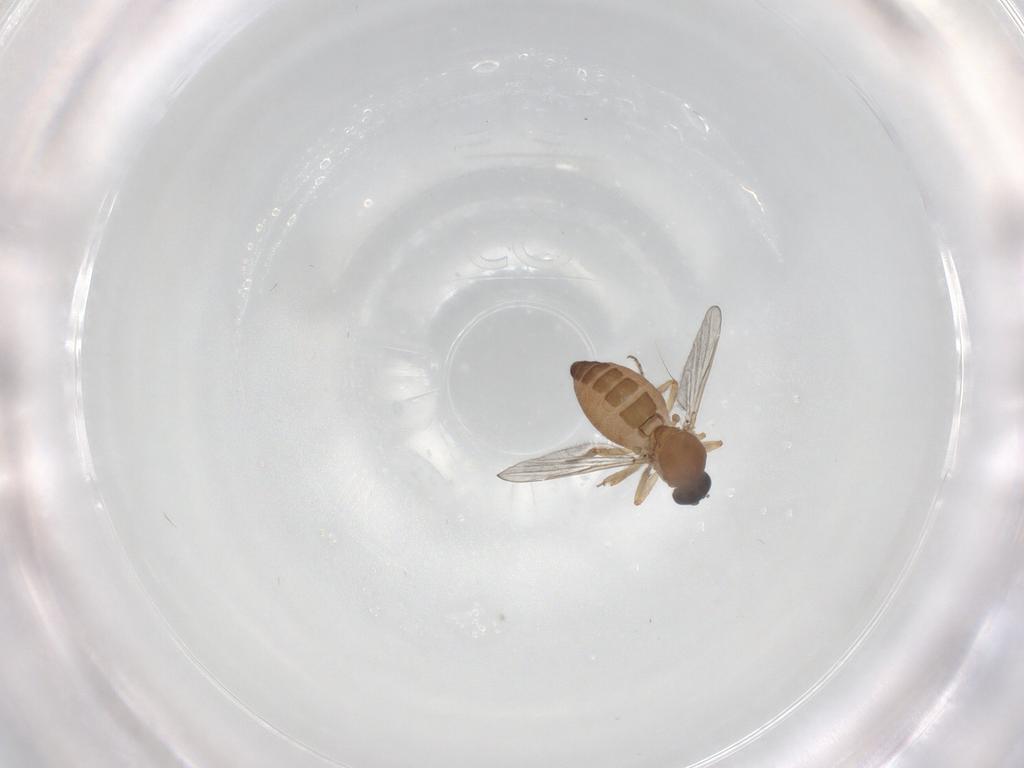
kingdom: Animalia
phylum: Arthropoda
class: Insecta
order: Diptera
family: Ceratopogonidae
